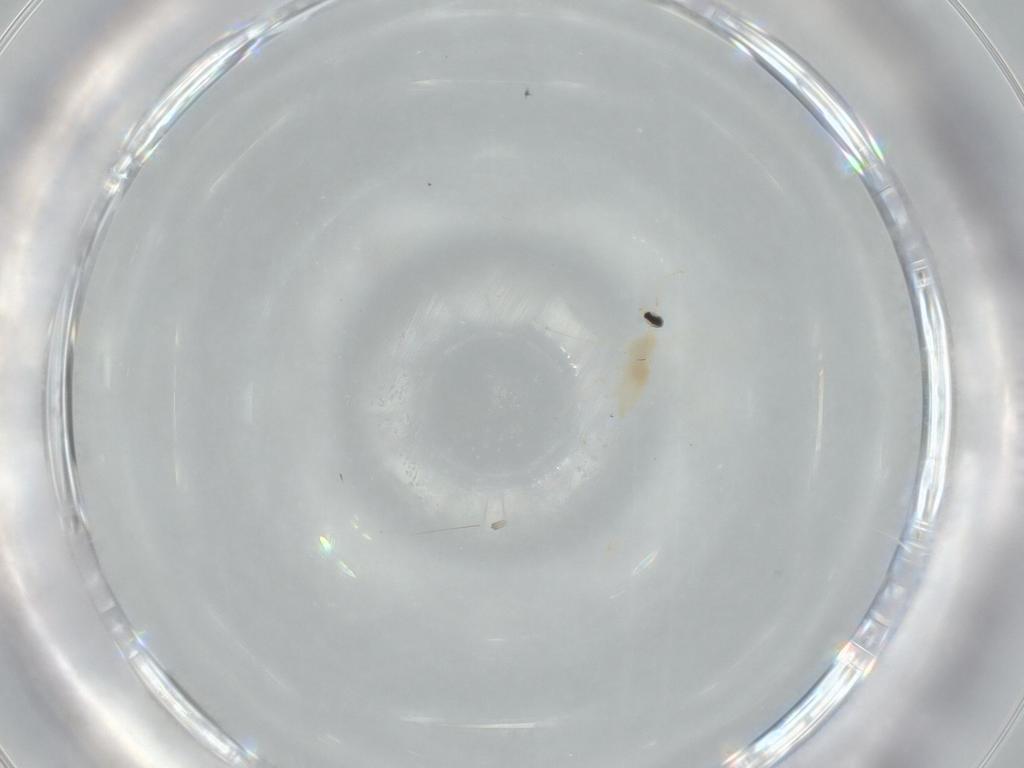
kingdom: Animalia
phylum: Arthropoda
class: Insecta
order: Diptera
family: Cecidomyiidae
